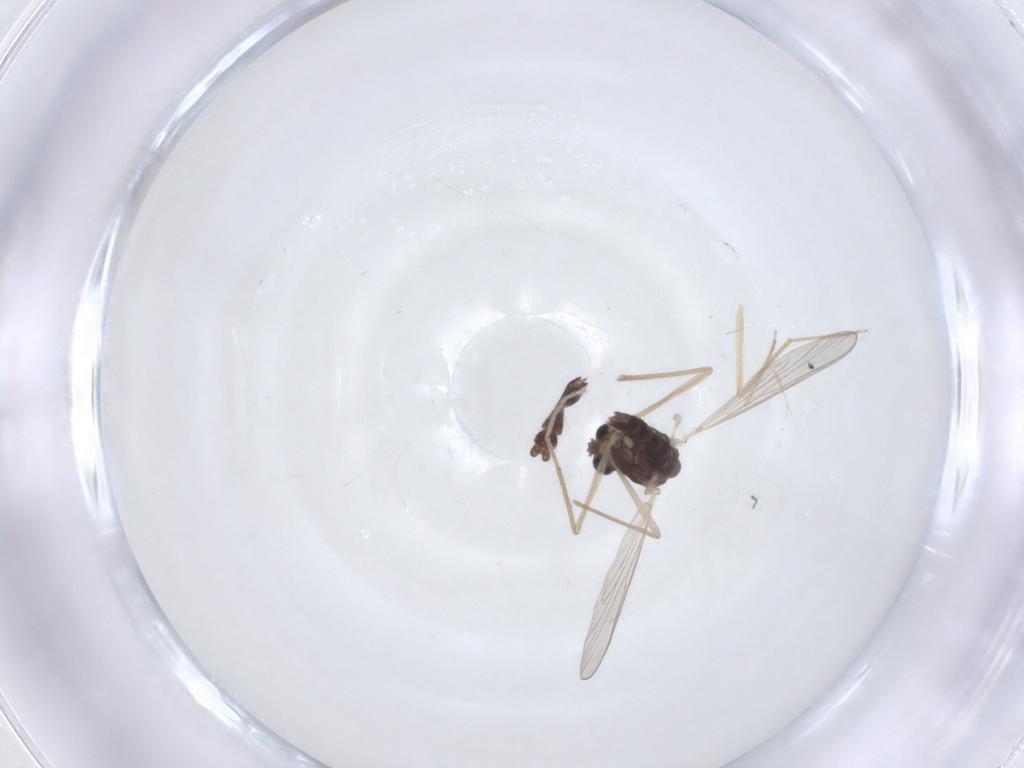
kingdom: Animalia
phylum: Arthropoda
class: Insecta
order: Diptera
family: Chironomidae
